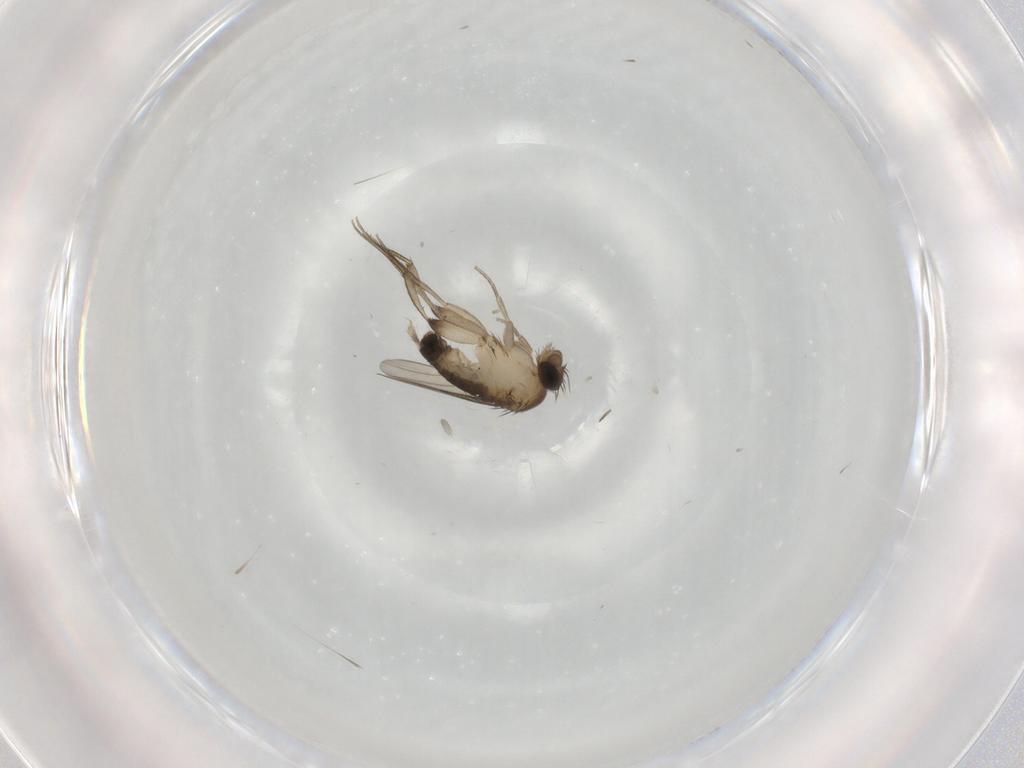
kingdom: Animalia
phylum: Arthropoda
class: Insecta
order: Diptera
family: Phoridae
